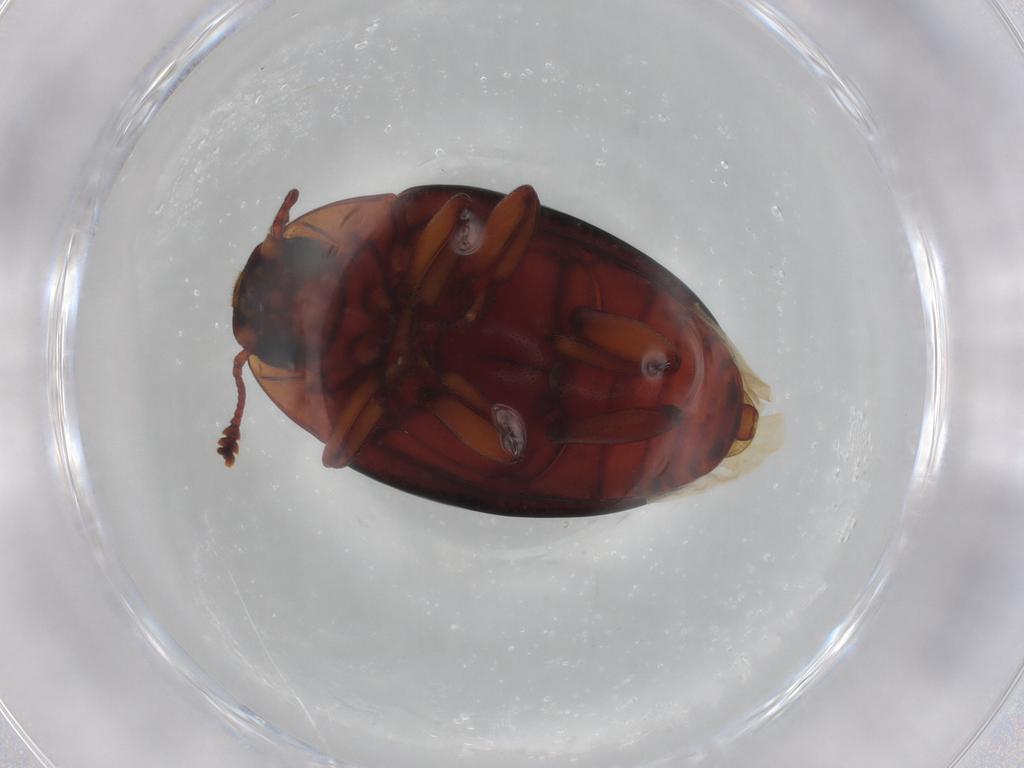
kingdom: Animalia
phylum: Arthropoda
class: Insecta
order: Coleoptera
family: Zopheridae
